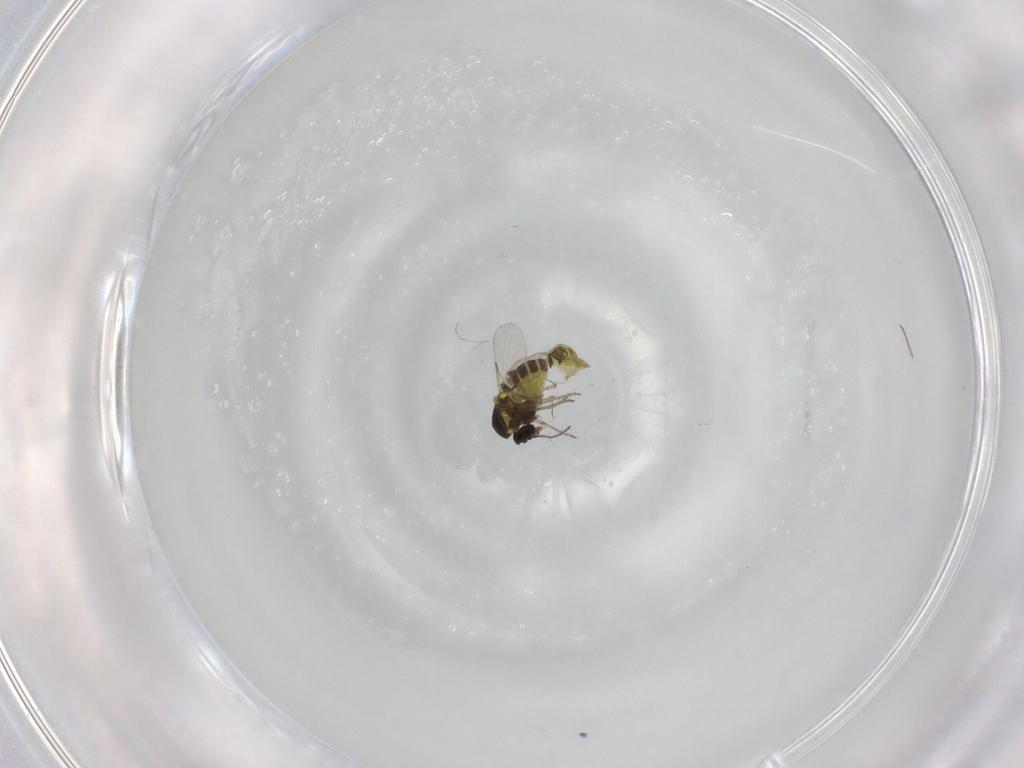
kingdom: Animalia
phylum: Arthropoda
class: Insecta
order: Diptera
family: Ceratopogonidae
